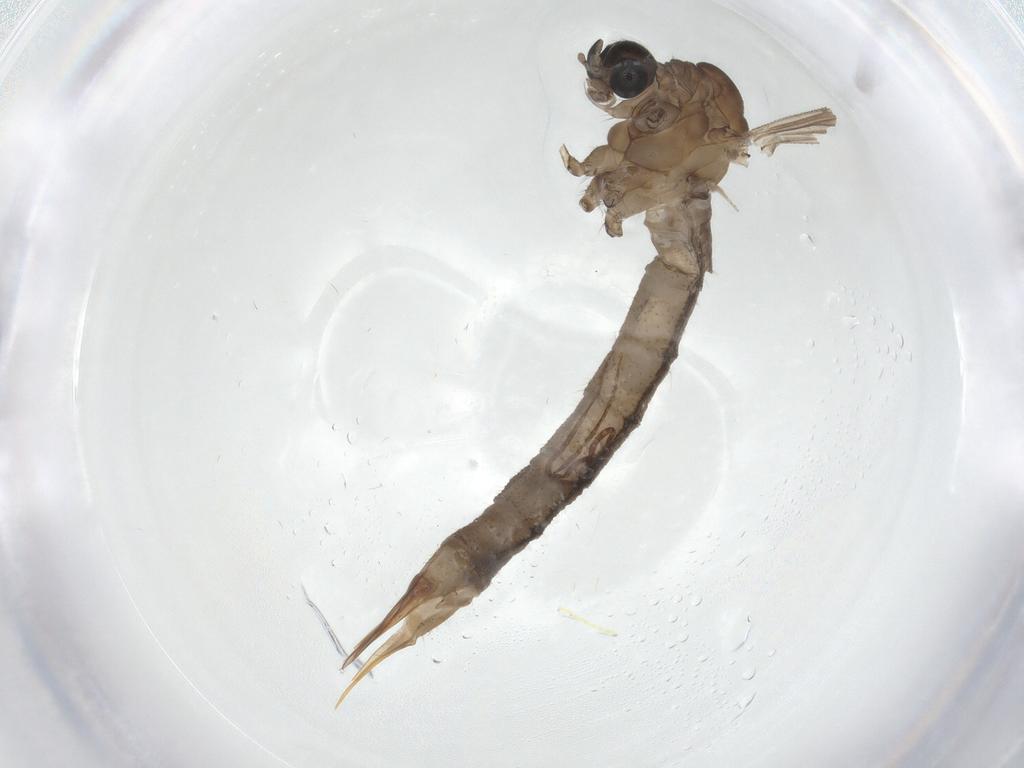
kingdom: Animalia
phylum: Arthropoda
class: Insecta
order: Diptera
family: Limoniidae
